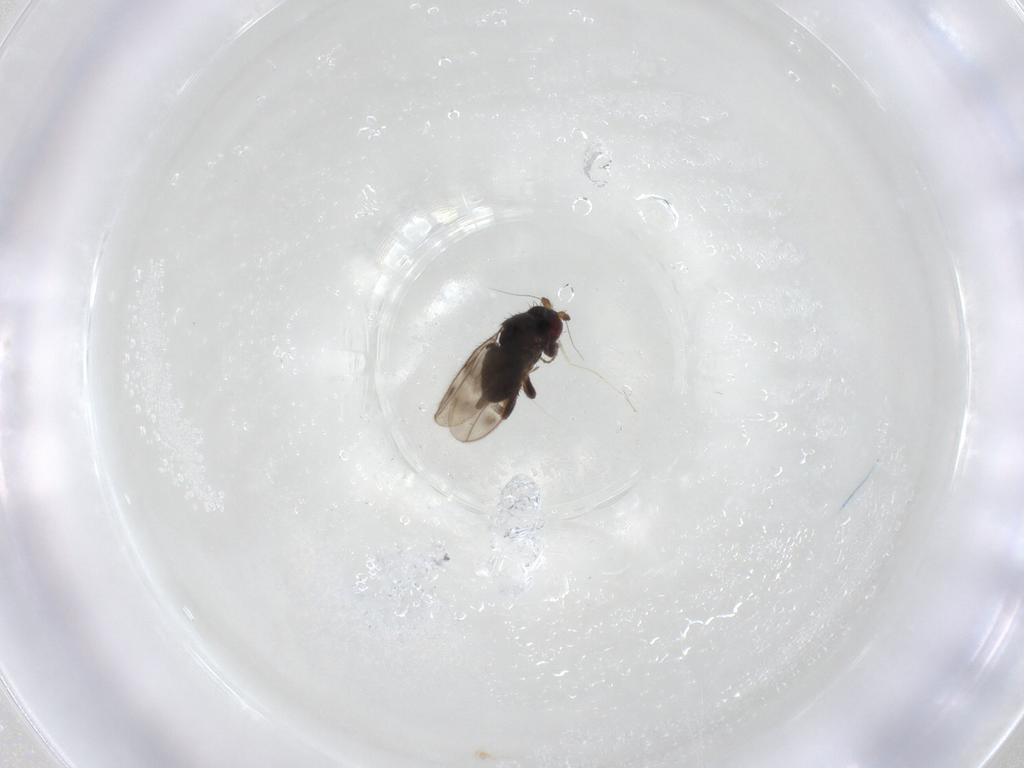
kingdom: Animalia
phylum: Arthropoda
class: Insecta
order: Diptera
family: Sphaeroceridae
